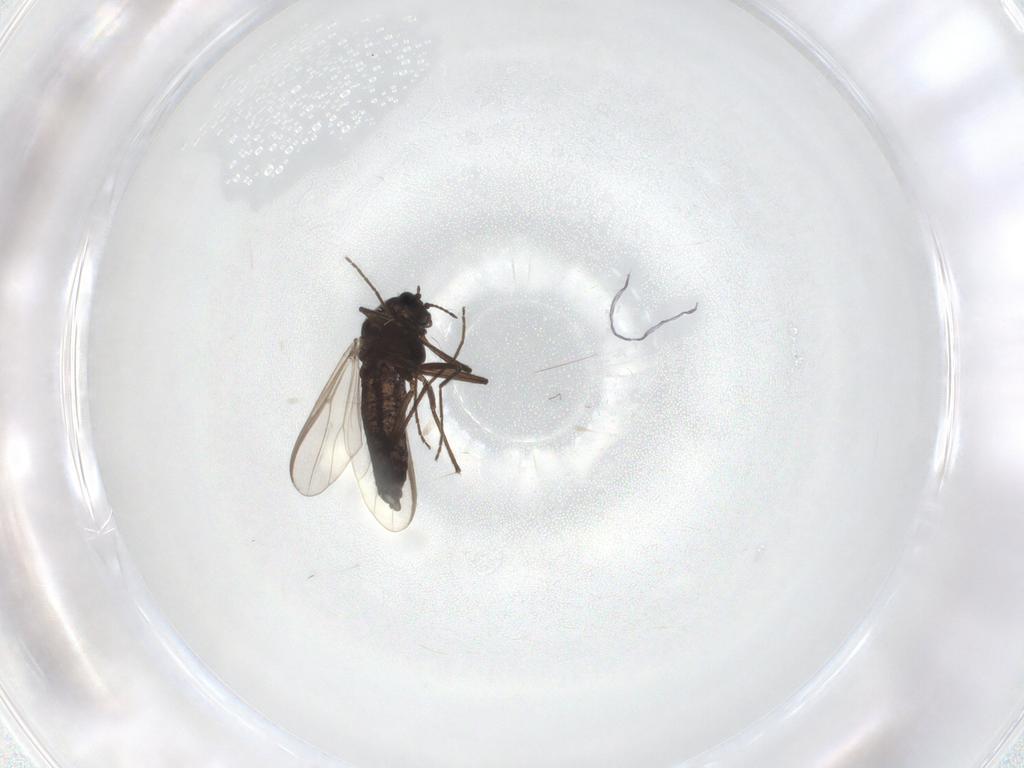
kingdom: Animalia
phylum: Arthropoda
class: Insecta
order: Diptera
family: Chironomidae
